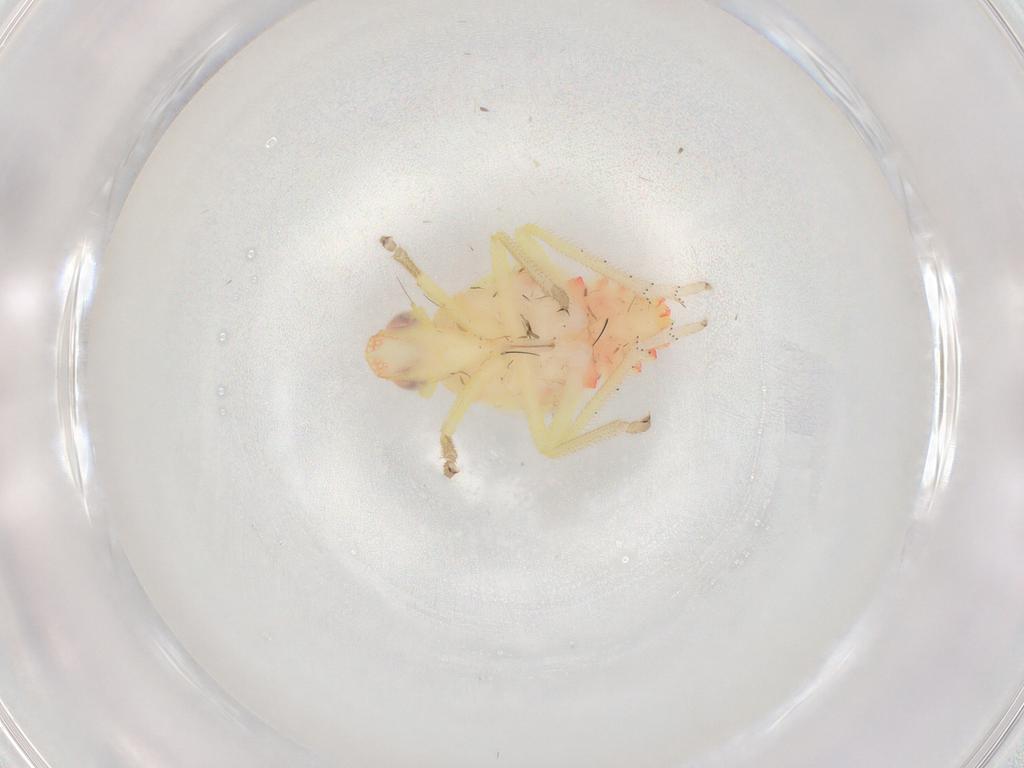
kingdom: Animalia
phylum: Arthropoda
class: Insecta
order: Hemiptera
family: Tropiduchidae
